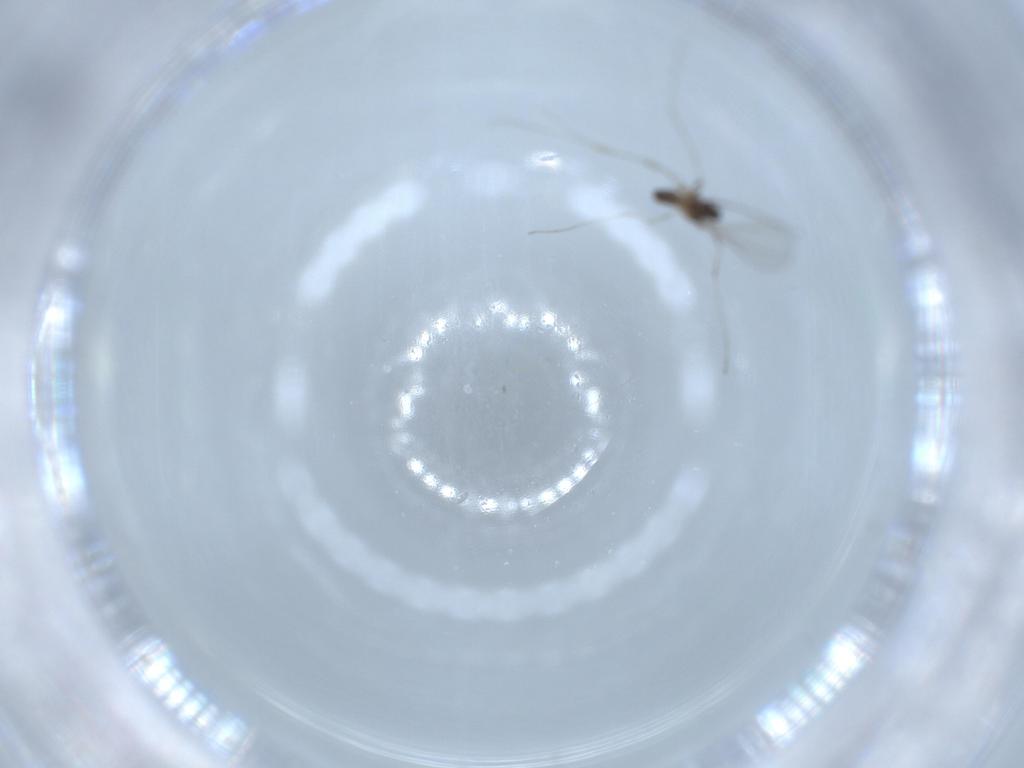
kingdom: Animalia
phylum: Arthropoda
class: Insecta
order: Diptera
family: Cecidomyiidae
